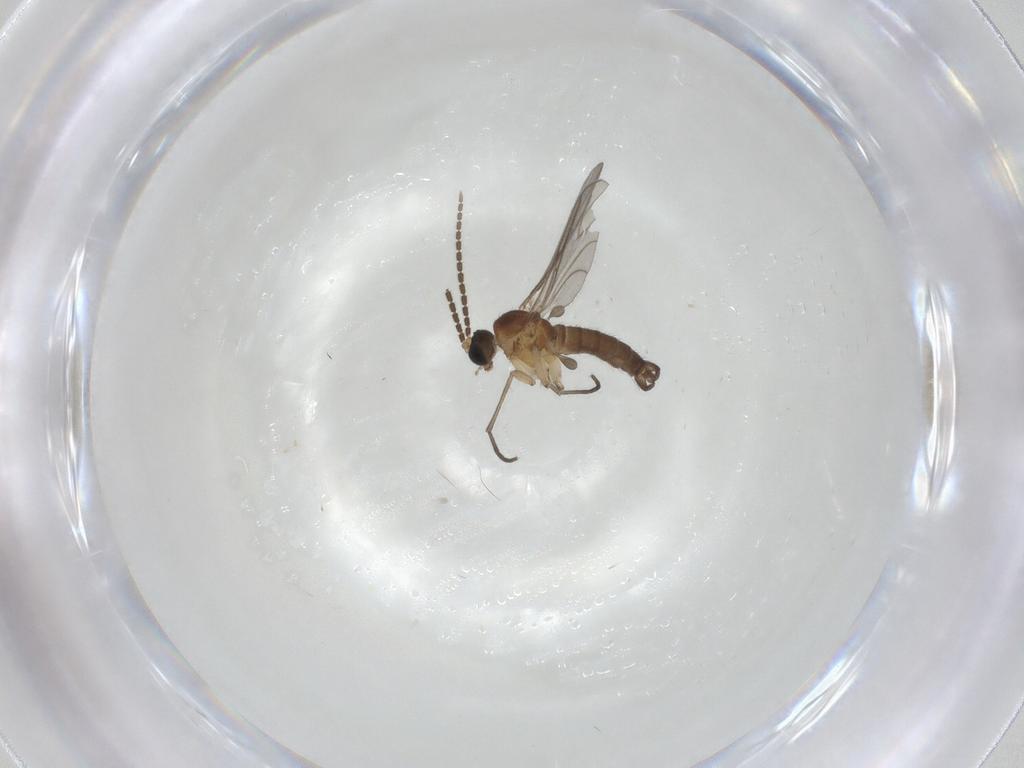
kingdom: Animalia
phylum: Arthropoda
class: Insecta
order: Diptera
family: Sciaridae
